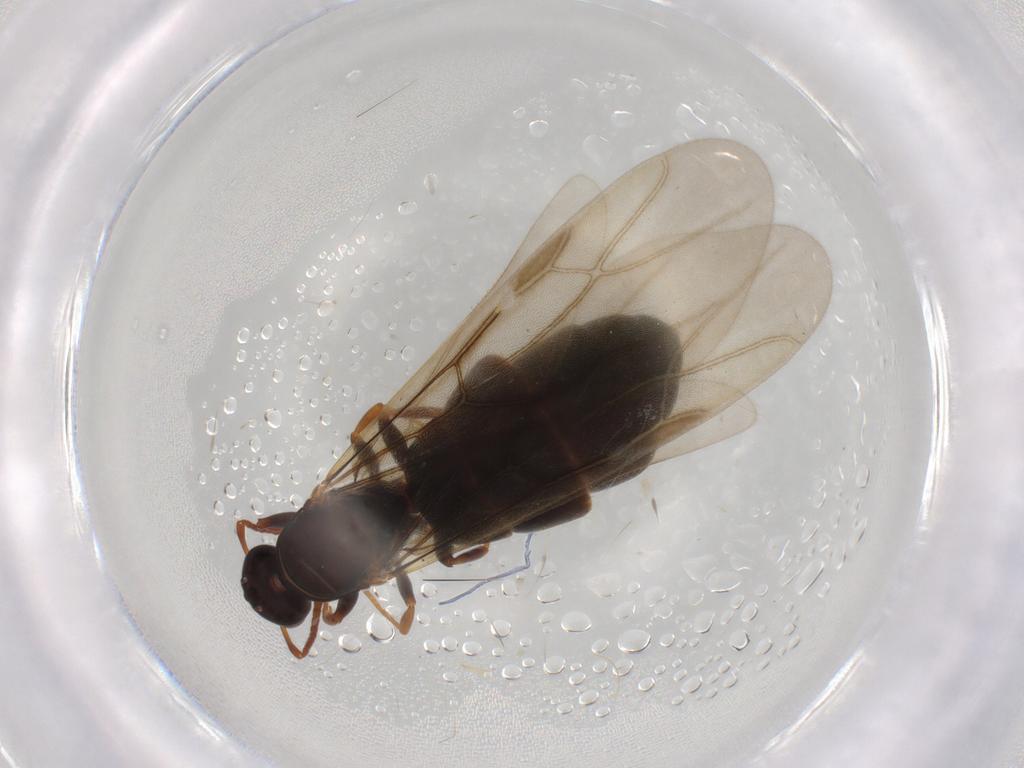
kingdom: Animalia
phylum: Arthropoda
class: Insecta
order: Hymenoptera
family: Formicidae
